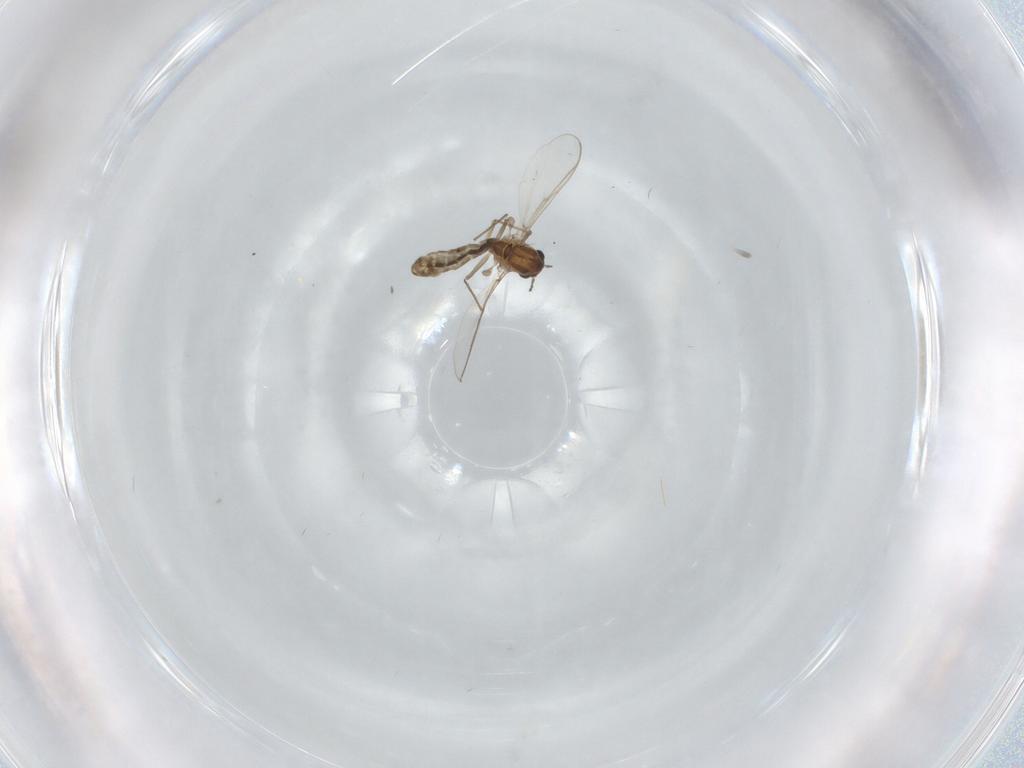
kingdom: Animalia
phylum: Arthropoda
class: Insecta
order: Diptera
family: Chironomidae
